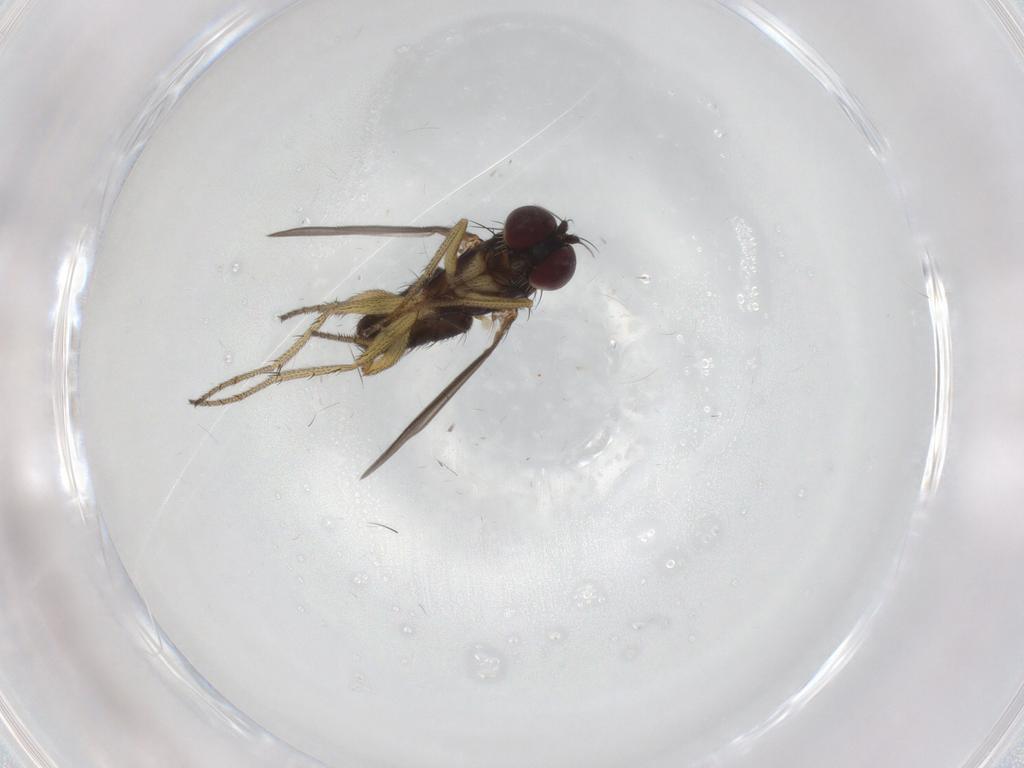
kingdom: Animalia
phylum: Arthropoda
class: Insecta
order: Diptera
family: Dolichopodidae
